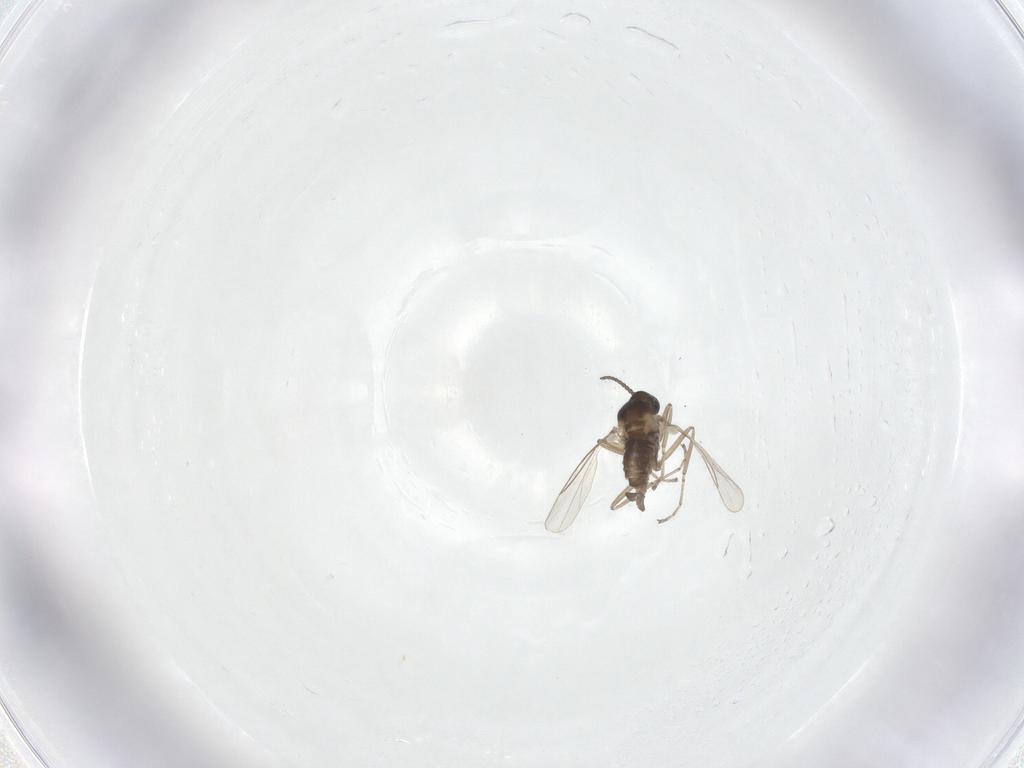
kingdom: Animalia
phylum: Arthropoda
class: Insecta
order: Diptera
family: Cecidomyiidae
